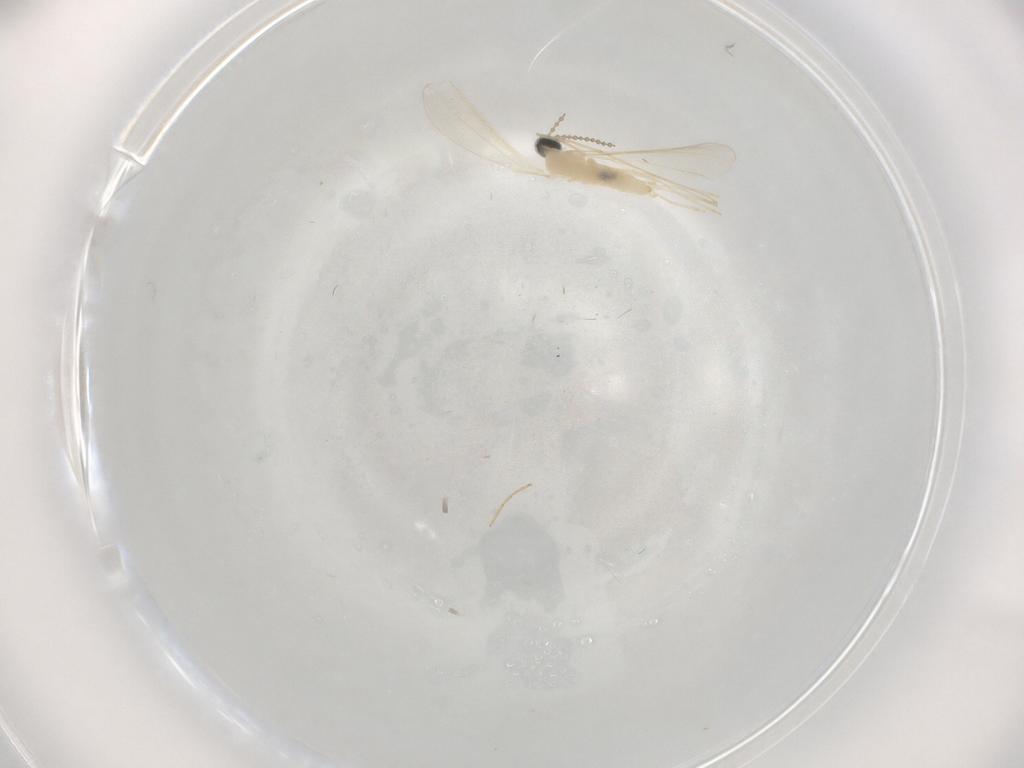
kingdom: Animalia
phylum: Arthropoda
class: Insecta
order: Diptera
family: Cecidomyiidae
